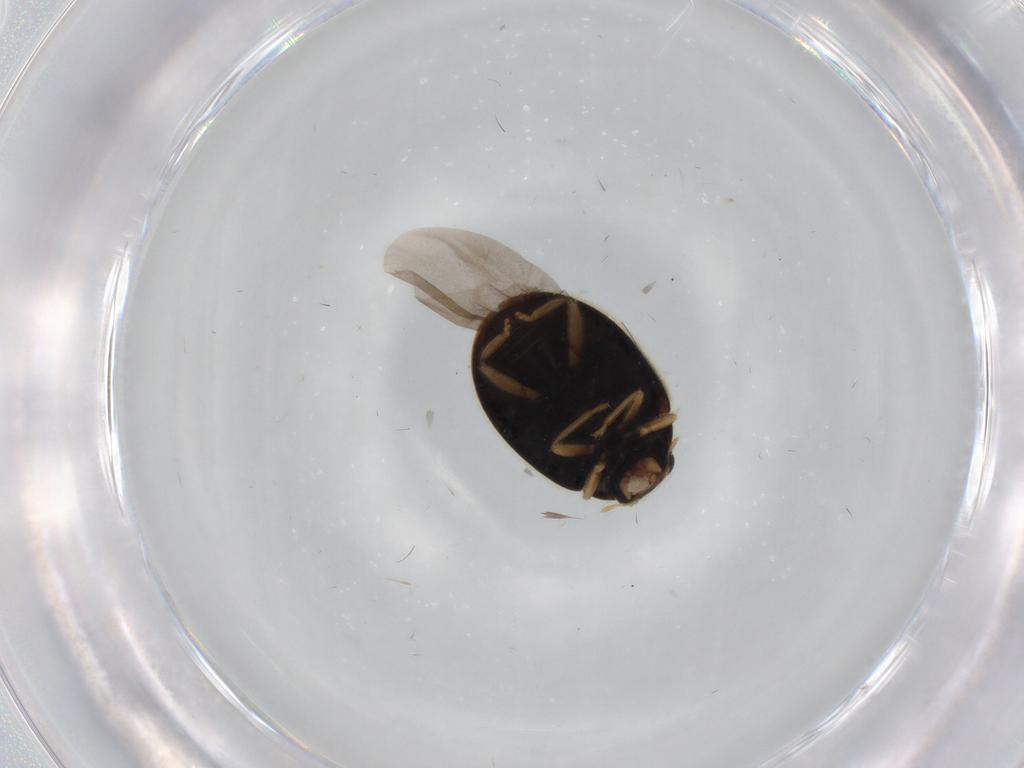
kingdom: Animalia
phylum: Arthropoda
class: Insecta
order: Coleoptera
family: Coccinellidae
